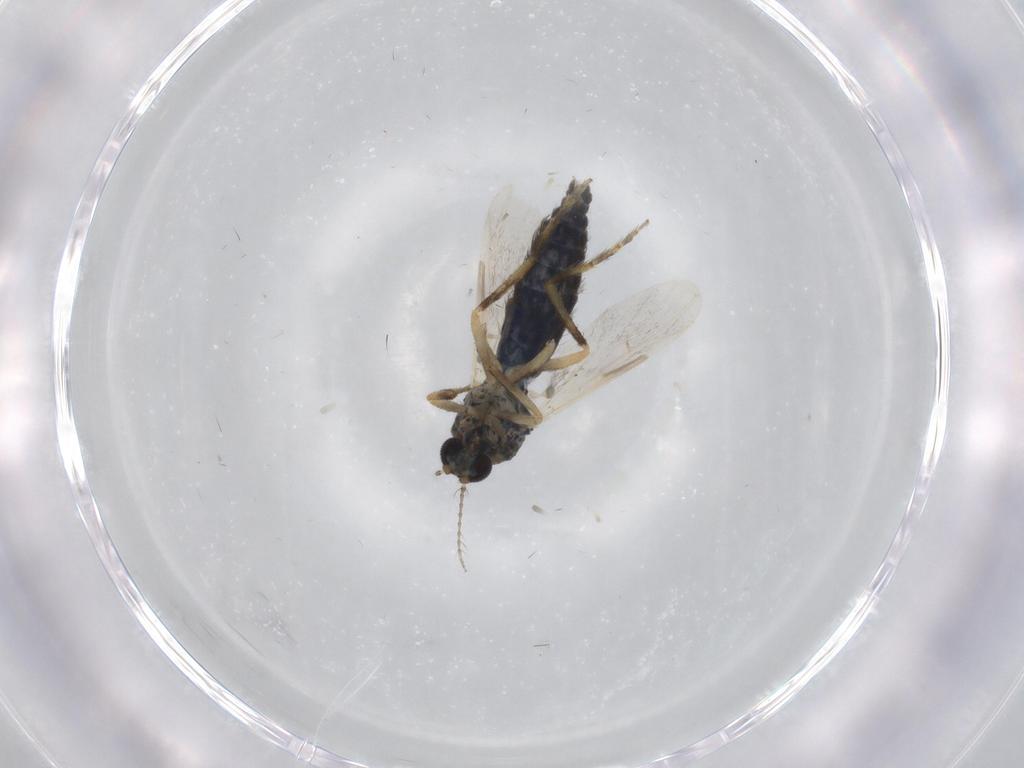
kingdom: Animalia
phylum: Arthropoda
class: Insecta
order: Diptera
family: Ceratopogonidae
